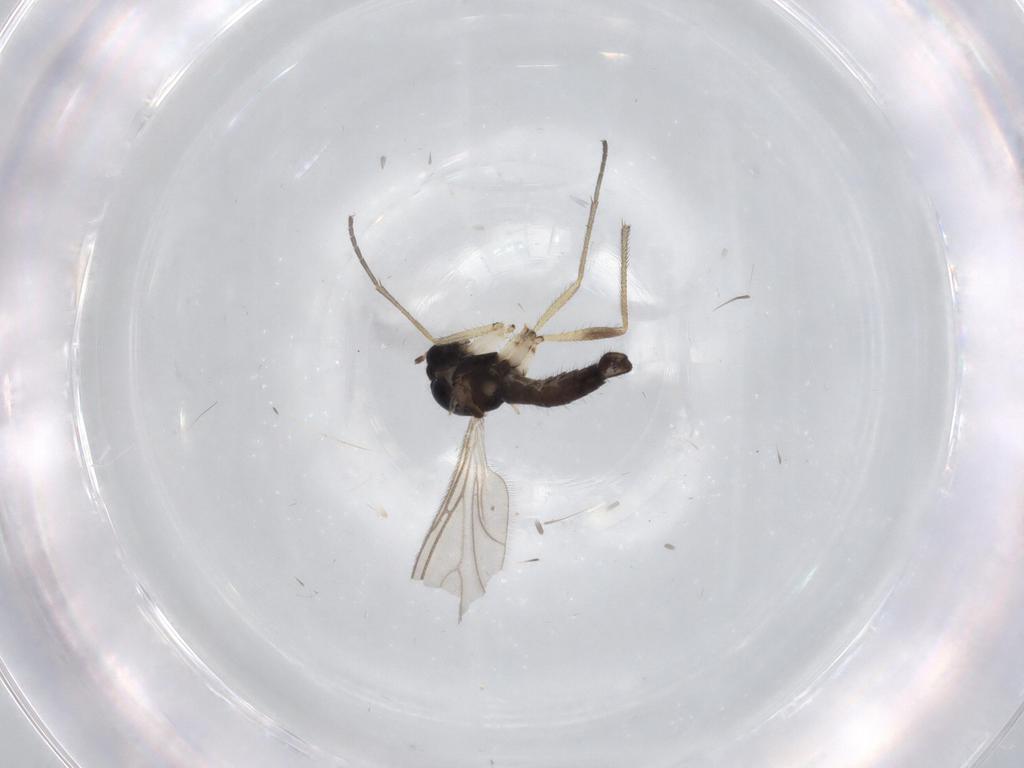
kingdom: Animalia
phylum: Arthropoda
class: Insecta
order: Diptera
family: Sciaridae
